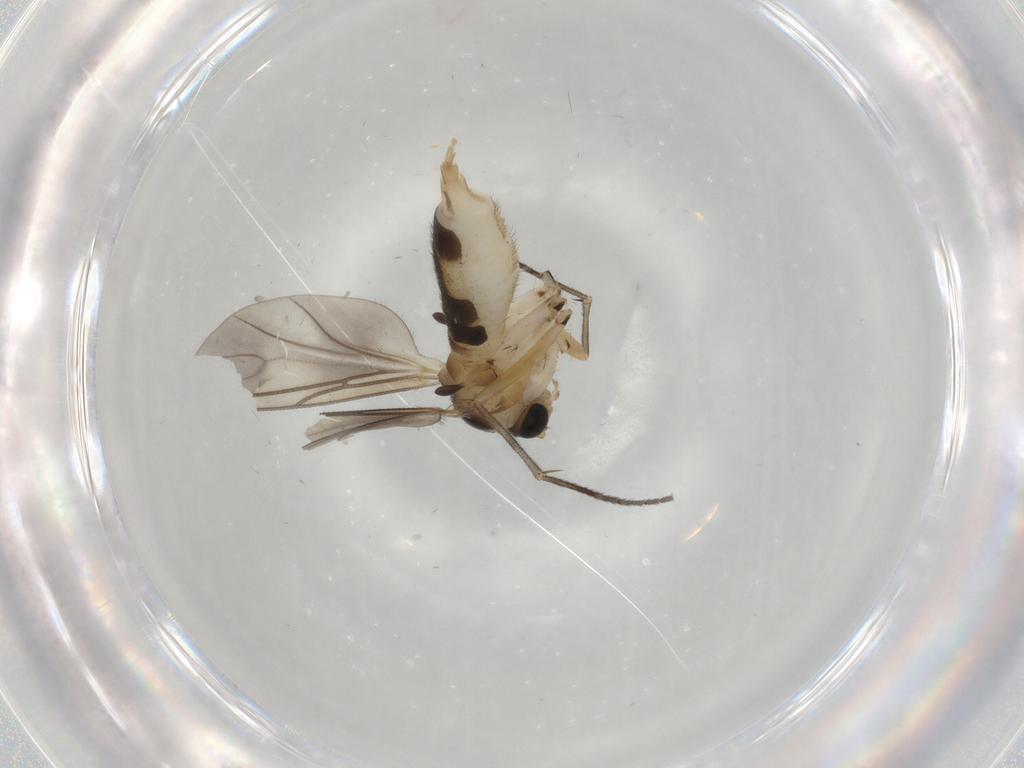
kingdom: Animalia
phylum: Arthropoda
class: Insecta
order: Diptera
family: Sciaridae
